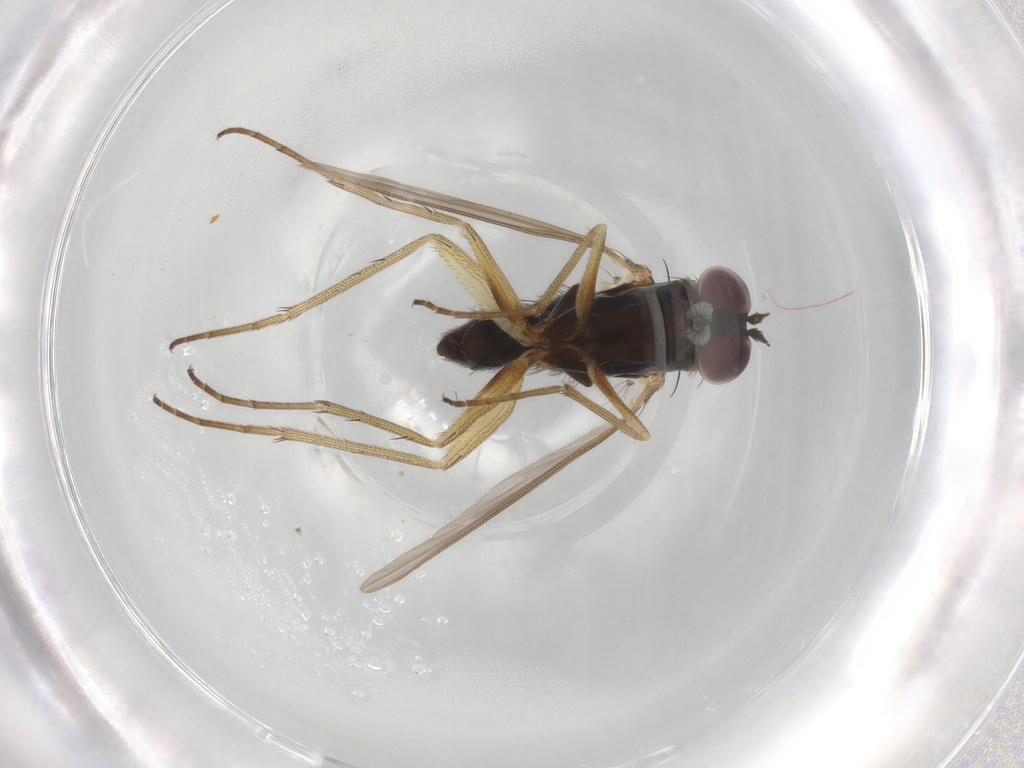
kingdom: Animalia
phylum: Arthropoda
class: Insecta
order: Diptera
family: Dolichopodidae
